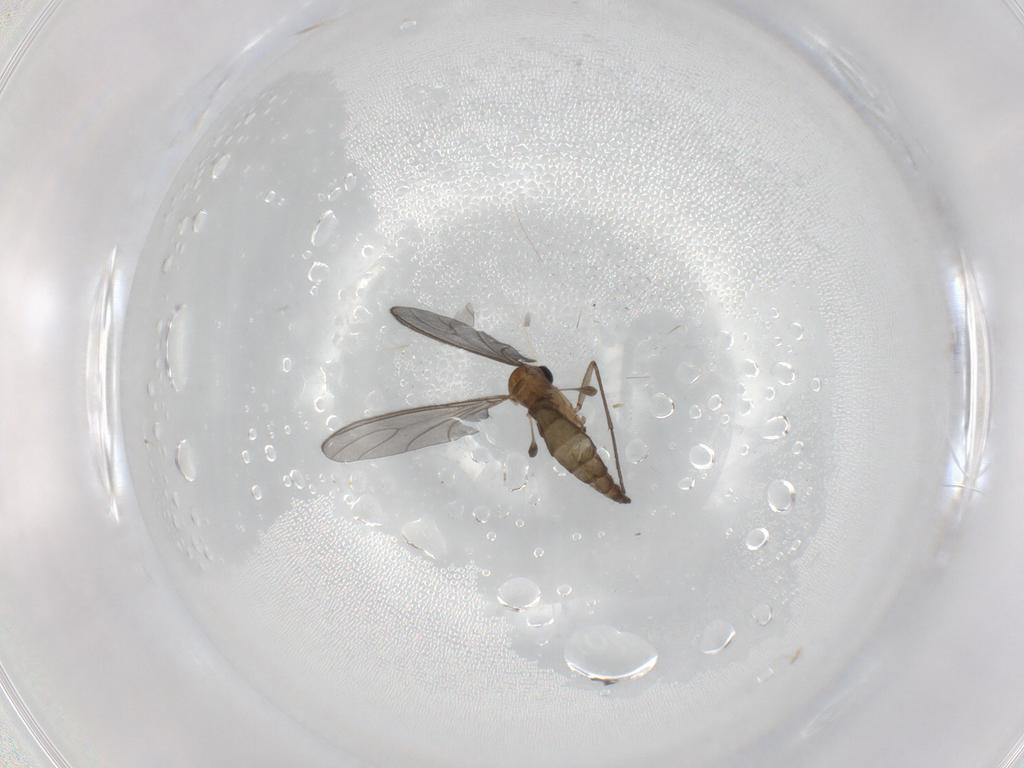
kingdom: Animalia
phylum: Arthropoda
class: Insecta
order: Diptera
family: Sciaridae
